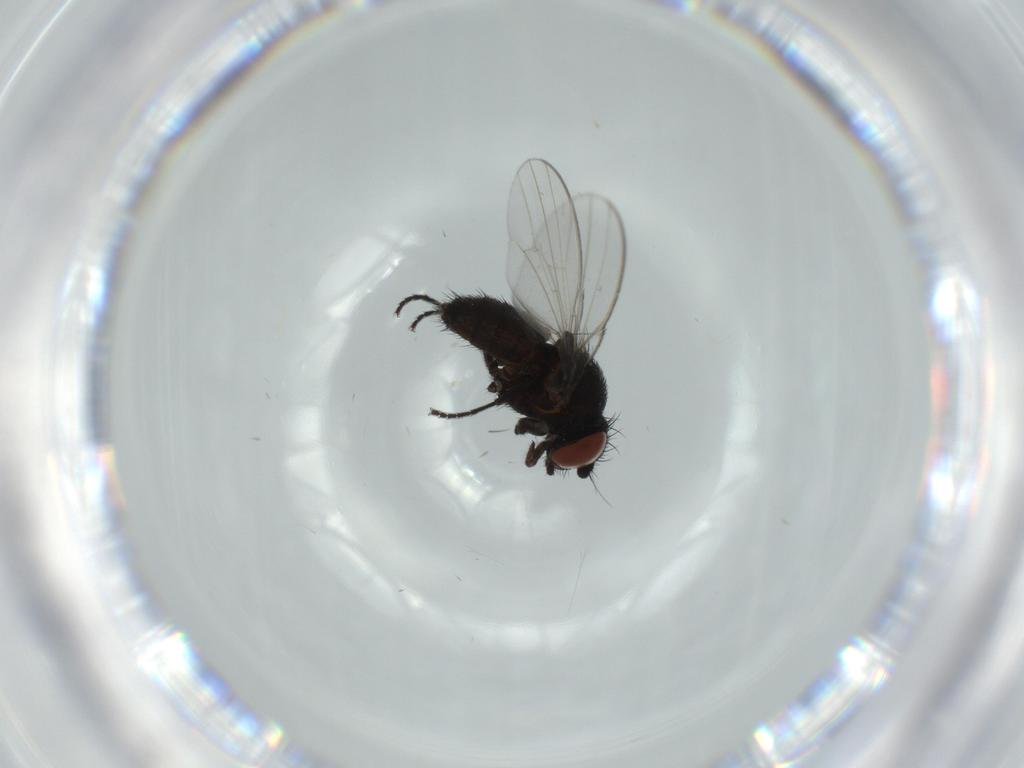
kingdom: Animalia
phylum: Arthropoda
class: Insecta
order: Diptera
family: Milichiidae
